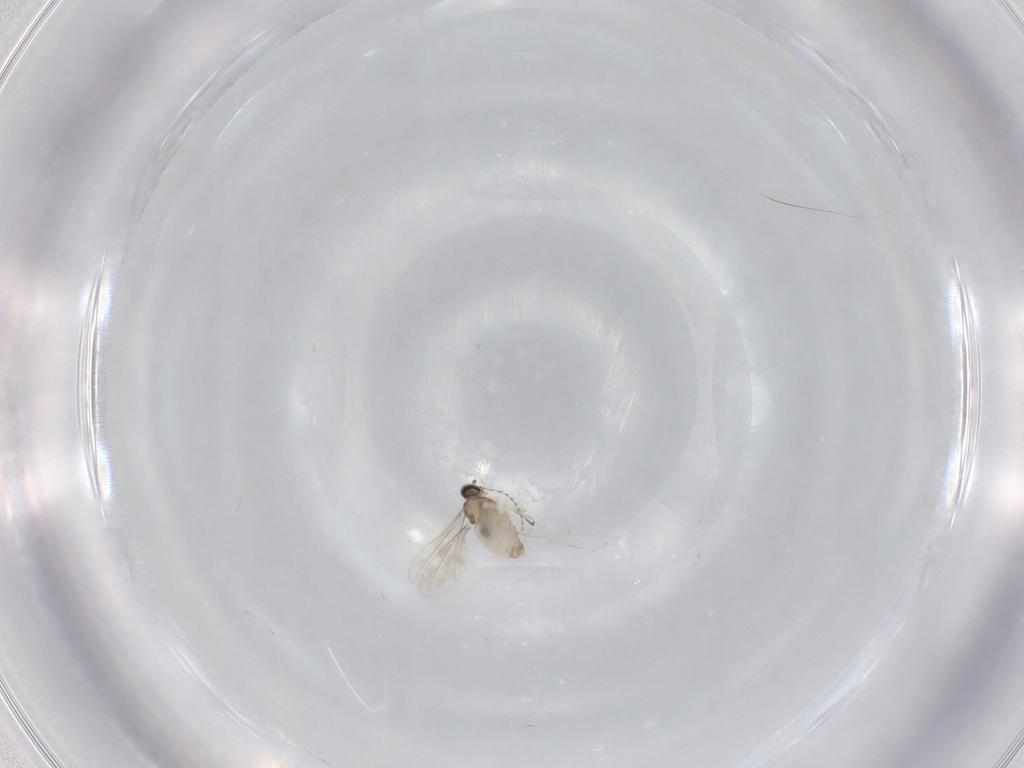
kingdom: Animalia
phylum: Arthropoda
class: Insecta
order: Diptera
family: Cecidomyiidae
